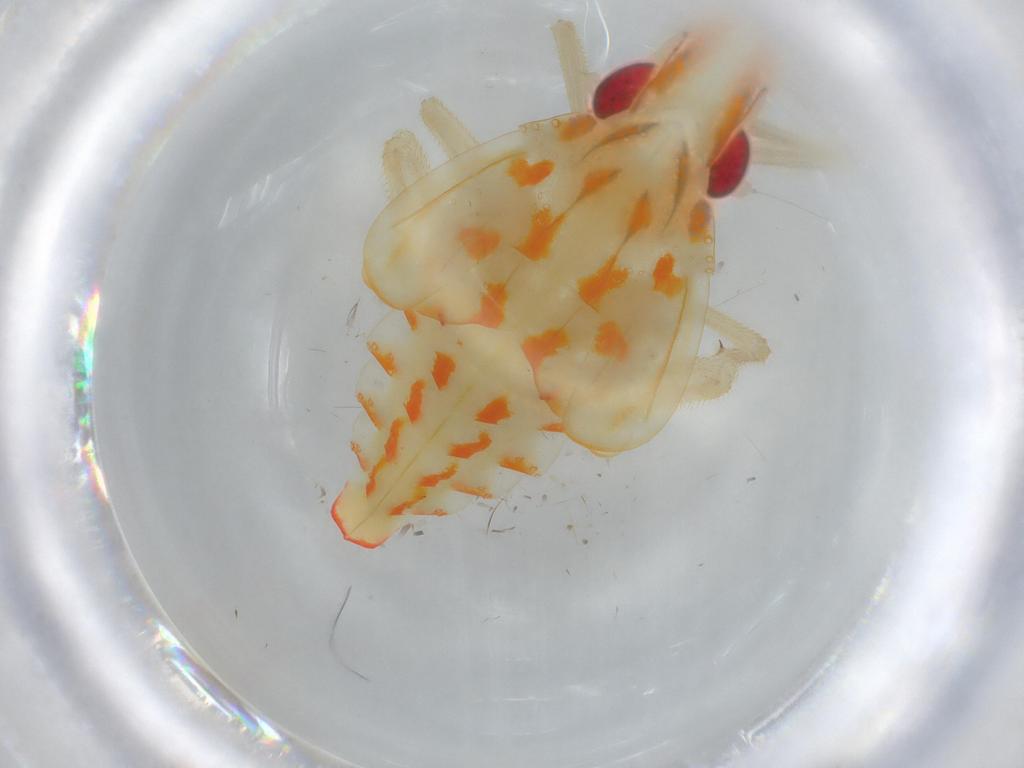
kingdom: Animalia
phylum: Arthropoda
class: Insecta
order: Hemiptera
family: Tropiduchidae
